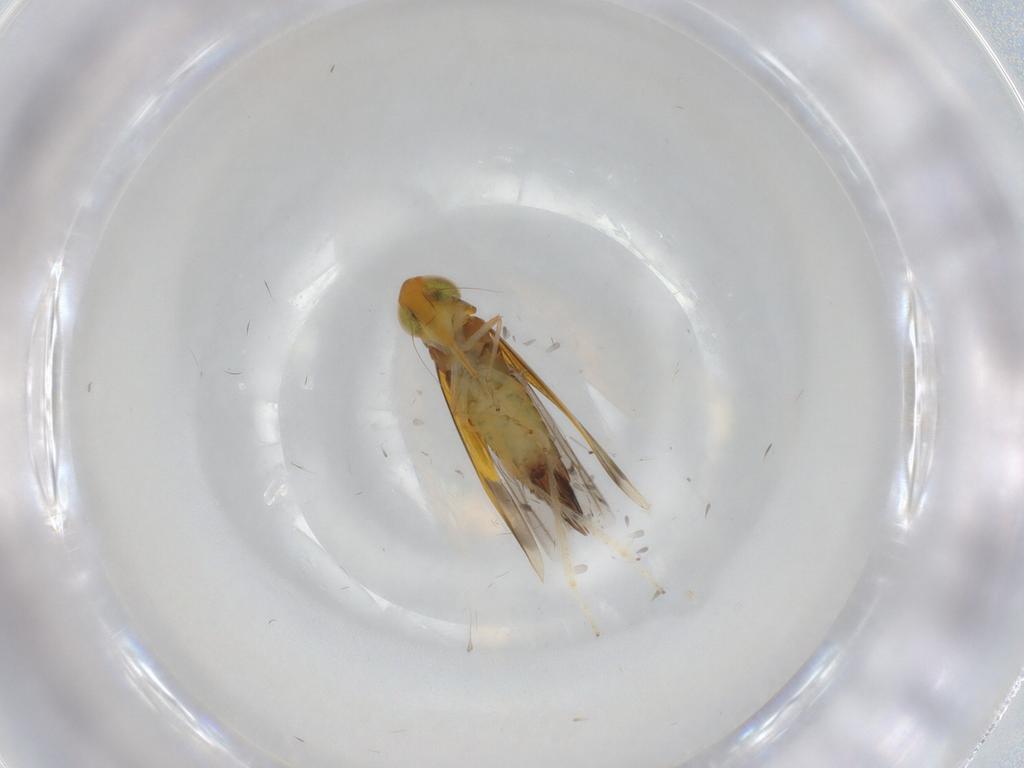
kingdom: Animalia
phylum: Arthropoda
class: Insecta
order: Hemiptera
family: Cicadellidae
